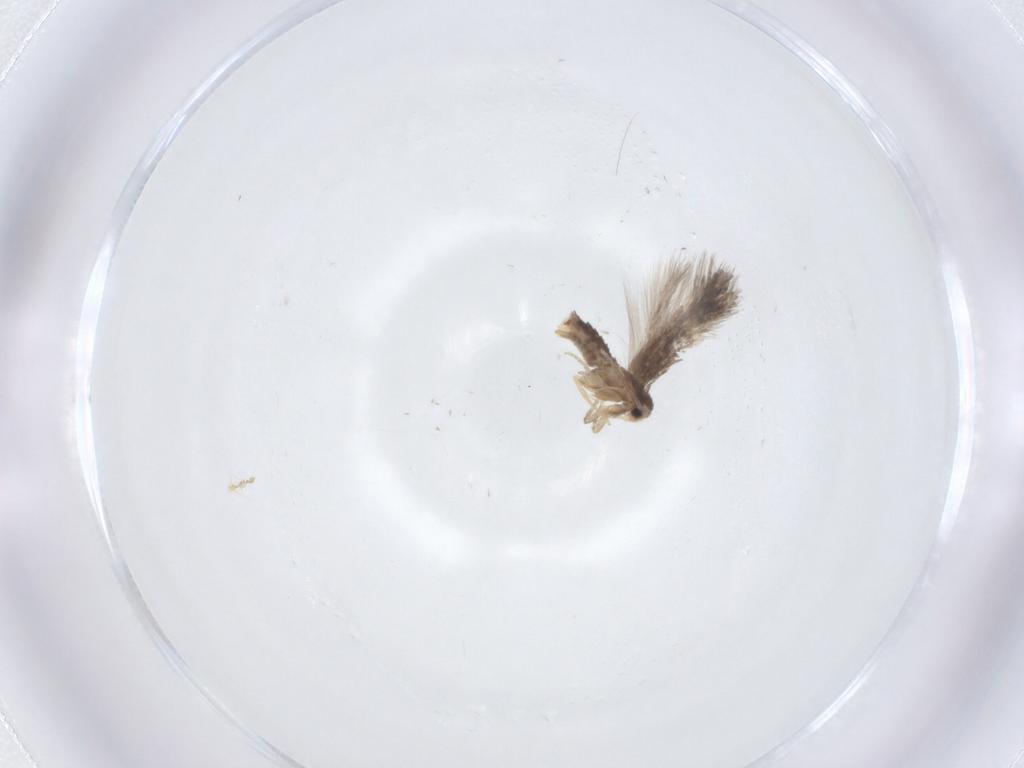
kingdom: Animalia
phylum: Arthropoda
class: Insecta
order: Lepidoptera
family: Nepticulidae
